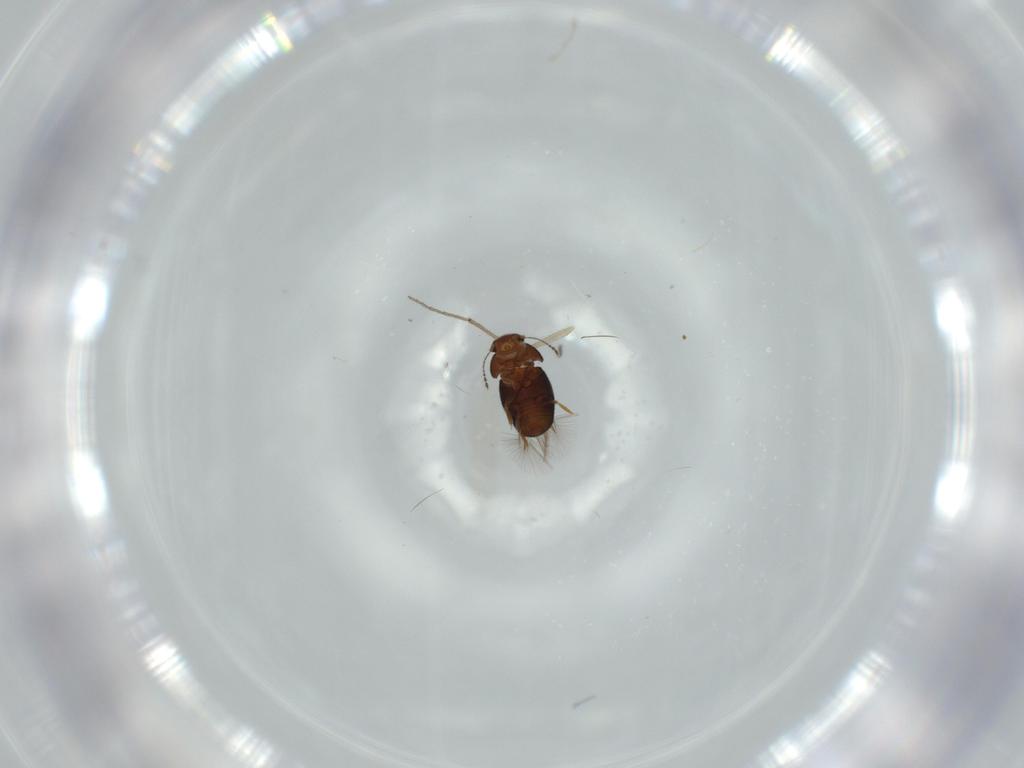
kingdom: Animalia
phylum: Arthropoda
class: Insecta
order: Coleoptera
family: Ptiliidae
